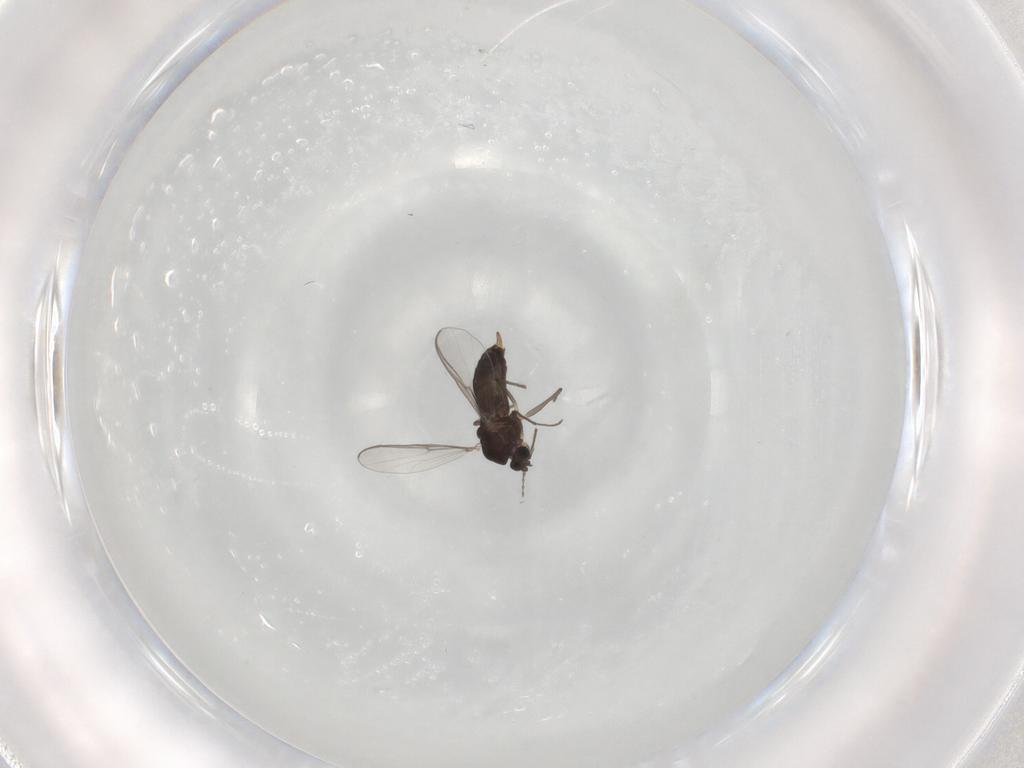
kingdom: Animalia
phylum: Arthropoda
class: Insecta
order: Diptera
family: Chironomidae
